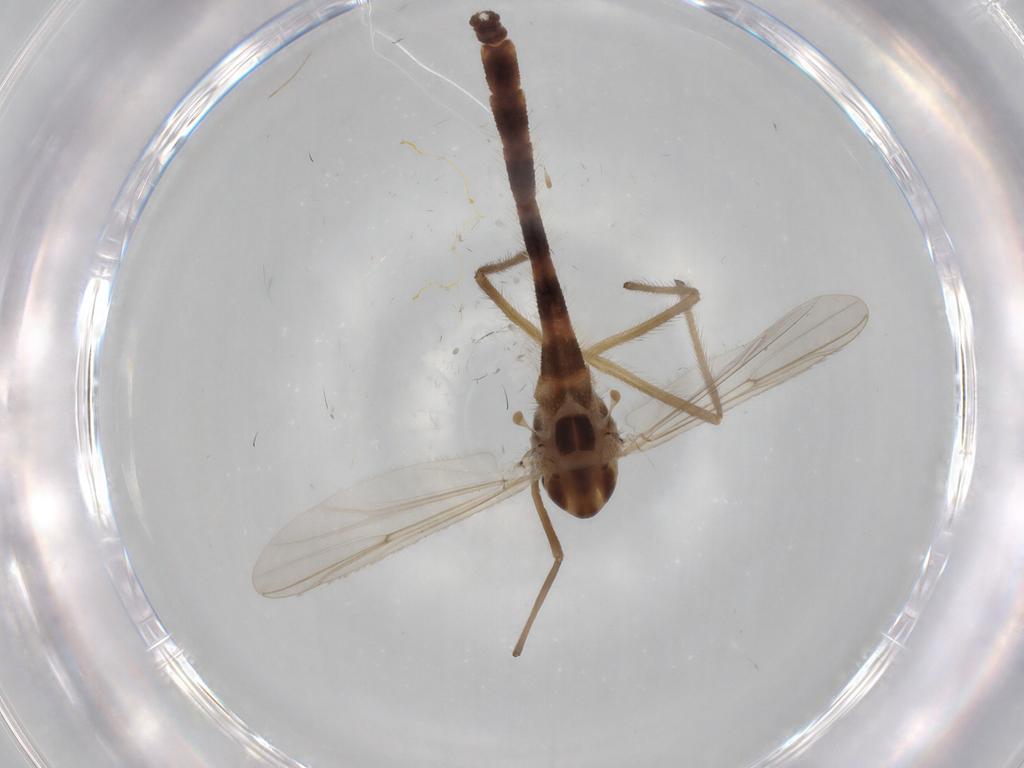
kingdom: Animalia
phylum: Arthropoda
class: Insecta
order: Diptera
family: Chironomidae
